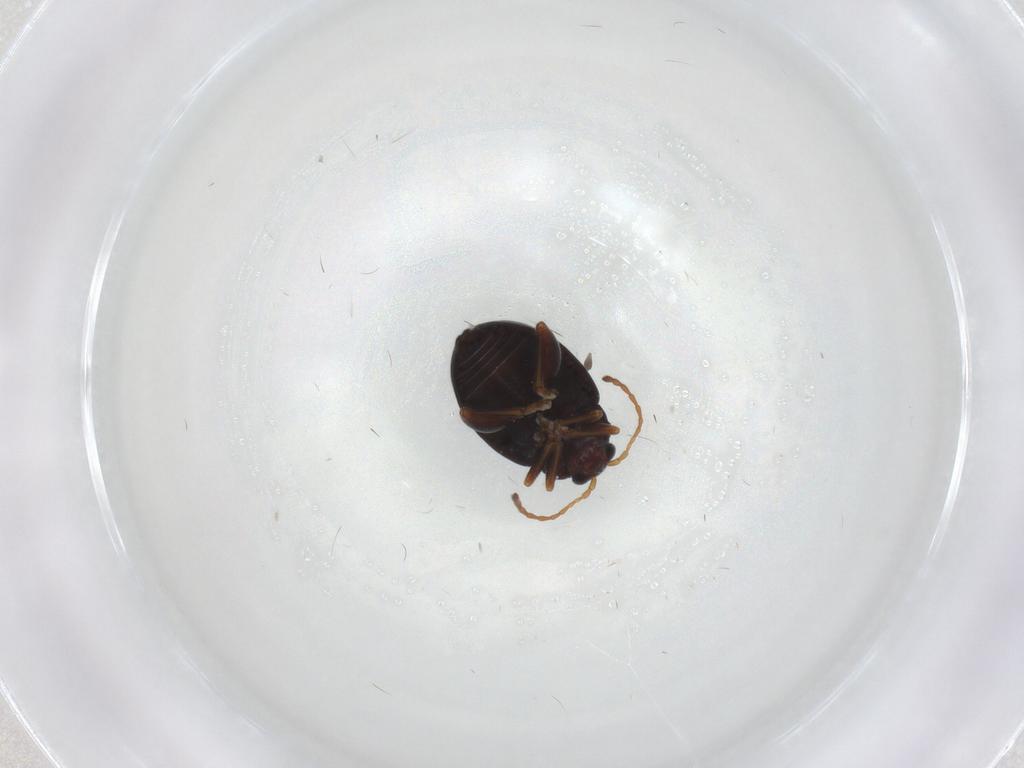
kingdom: Animalia
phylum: Arthropoda
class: Insecta
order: Coleoptera
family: Chrysomelidae
